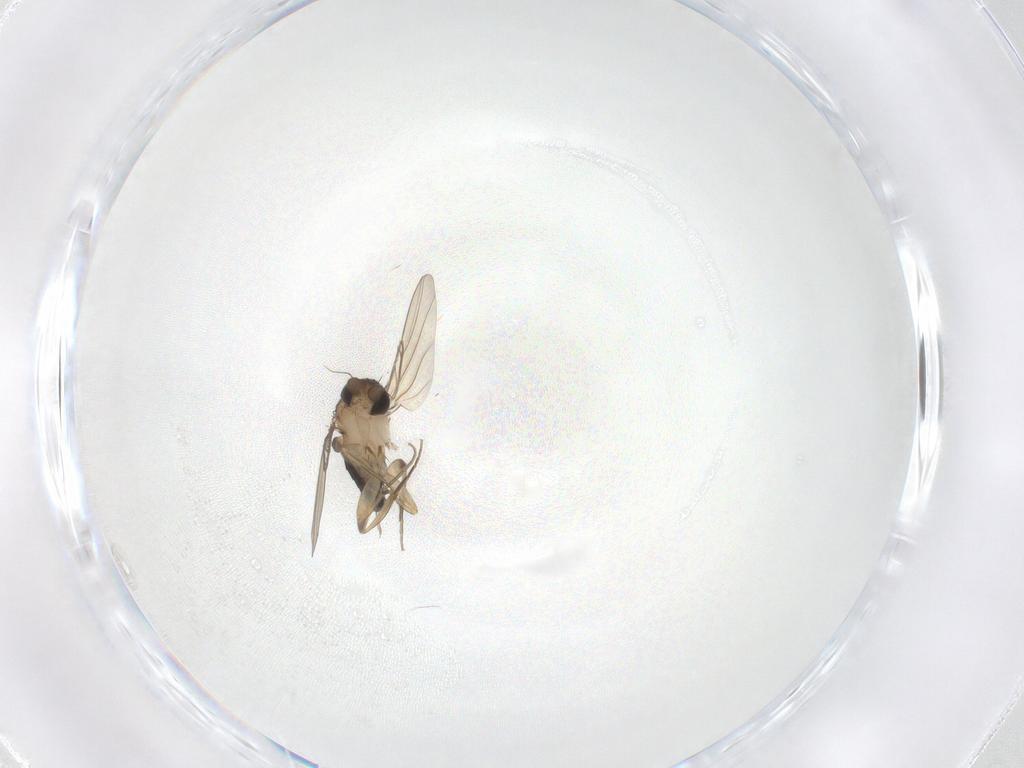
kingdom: Animalia
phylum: Arthropoda
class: Insecta
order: Diptera
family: Phoridae
